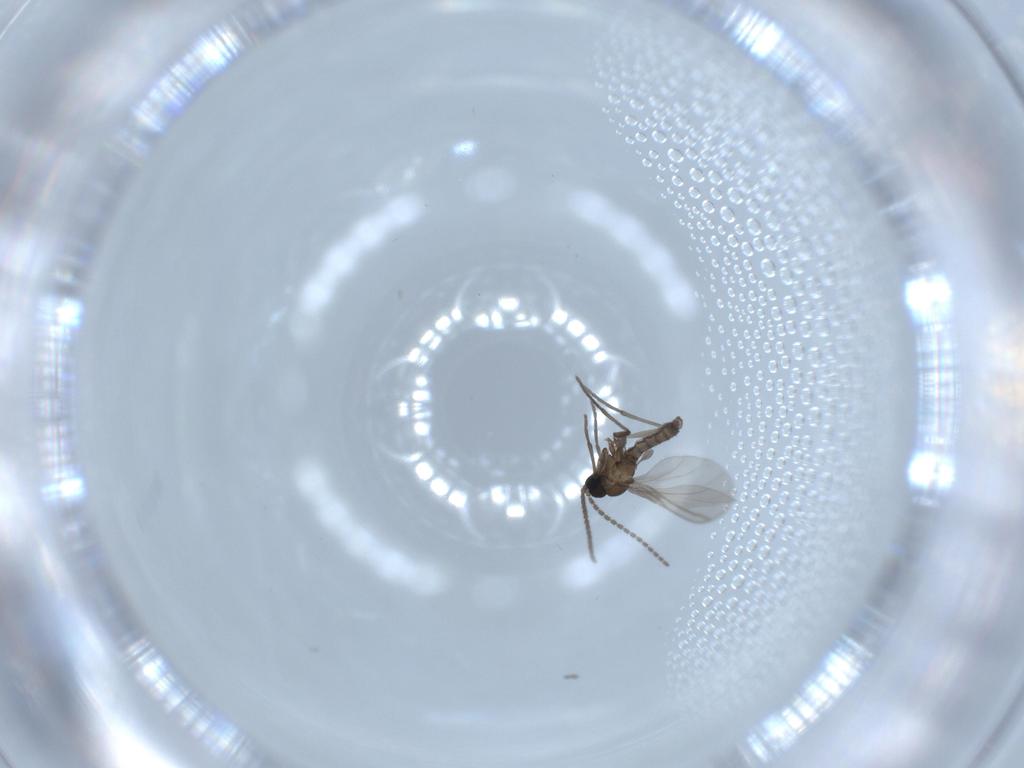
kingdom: Animalia
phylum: Arthropoda
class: Insecta
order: Diptera
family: Sciaridae
